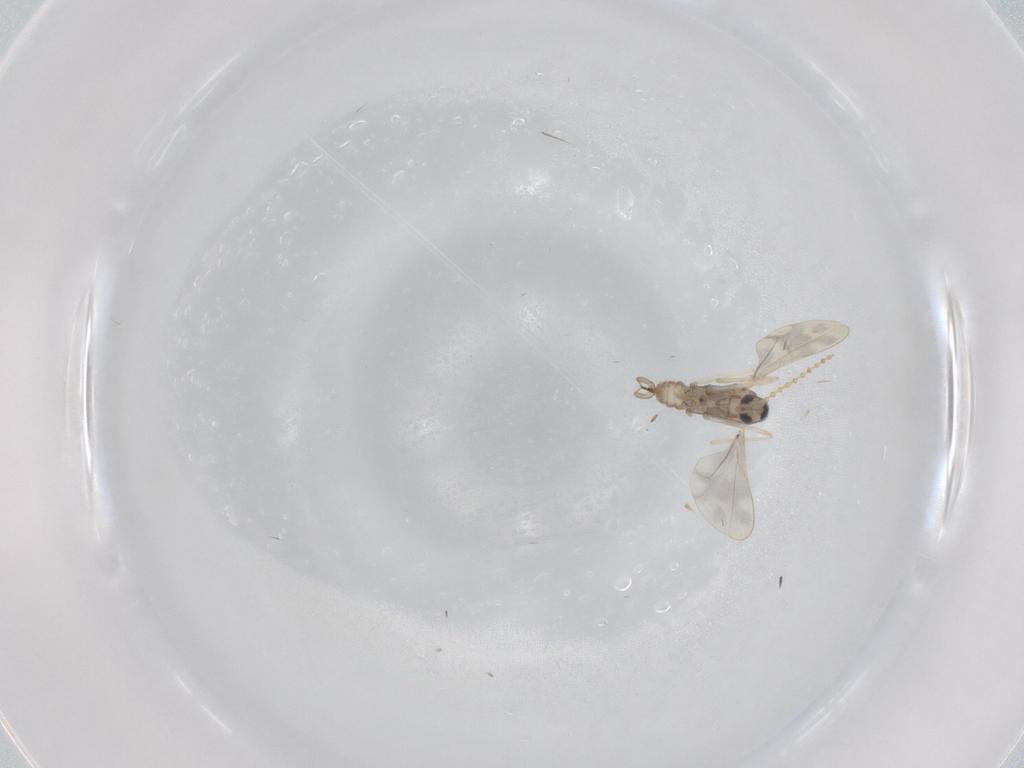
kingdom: Animalia
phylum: Arthropoda
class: Insecta
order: Diptera
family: Cecidomyiidae
